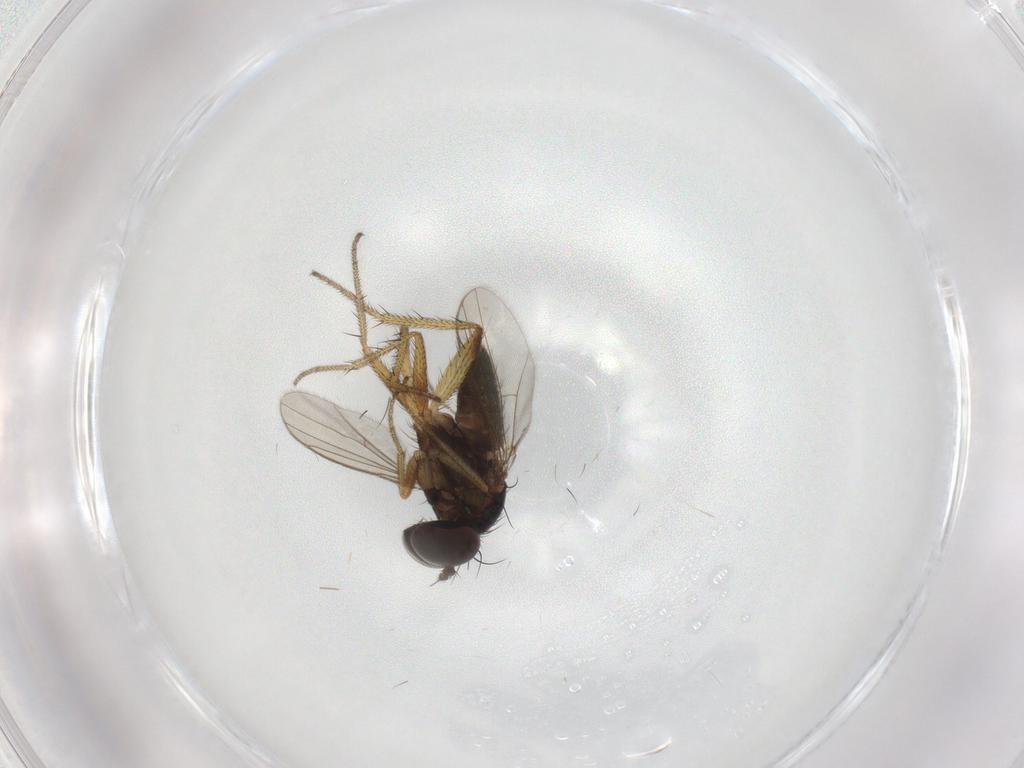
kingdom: Animalia
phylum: Arthropoda
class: Insecta
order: Diptera
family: Chironomidae
